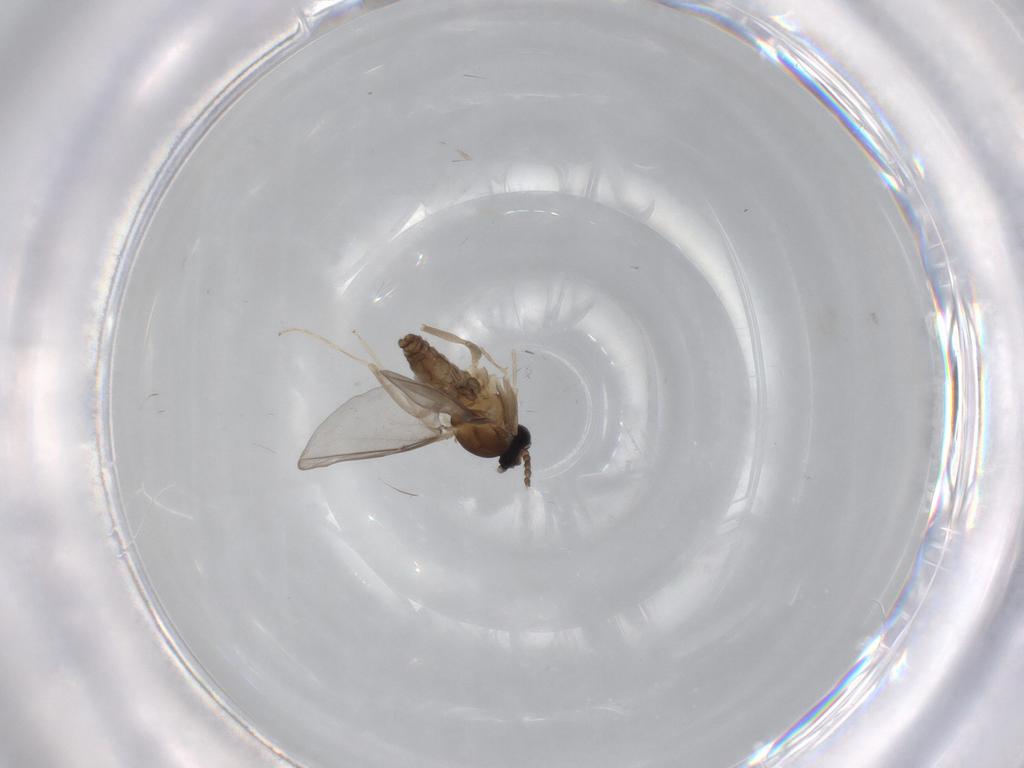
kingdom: Animalia
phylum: Arthropoda
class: Insecta
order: Diptera
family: Cecidomyiidae
